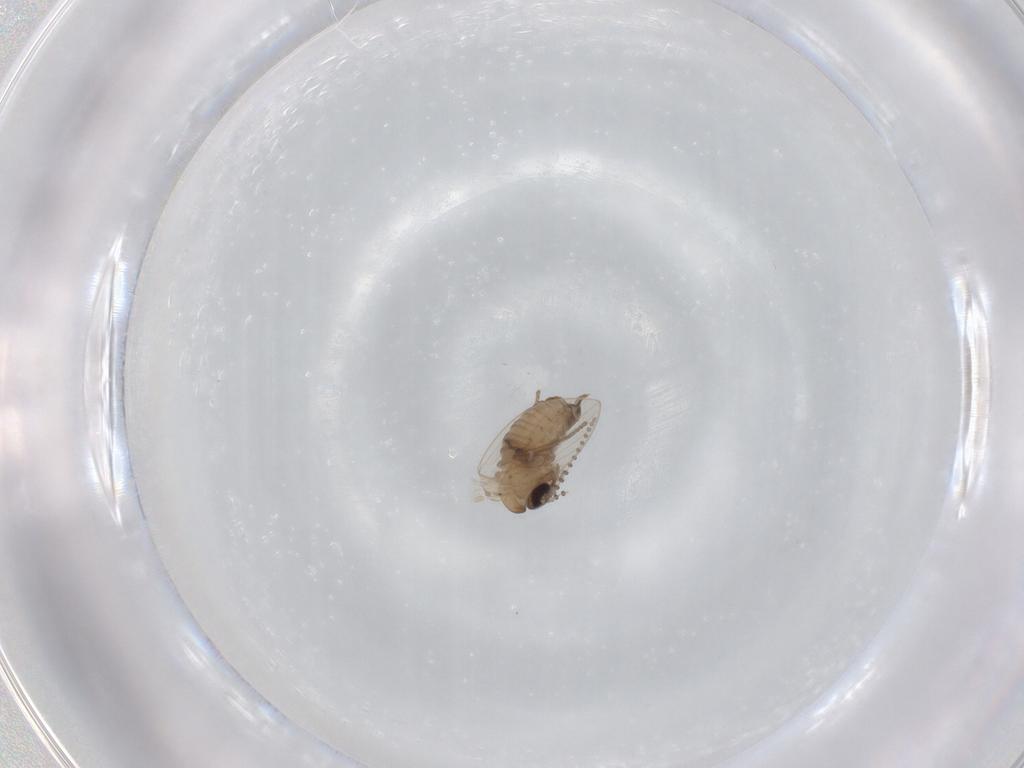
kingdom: Animalia
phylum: Arthropoda
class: Insecta
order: Diptera
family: Psychodidae
